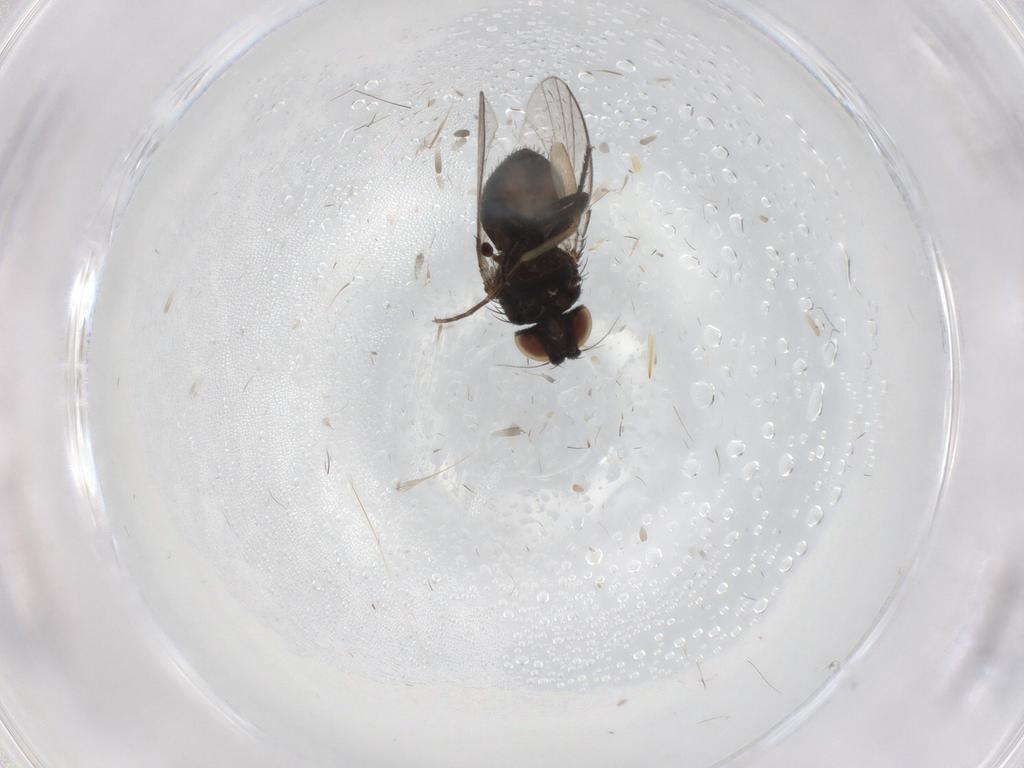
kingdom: Animalia
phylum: Arthropoda
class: Insecta
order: Diptera
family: Milichiidae
